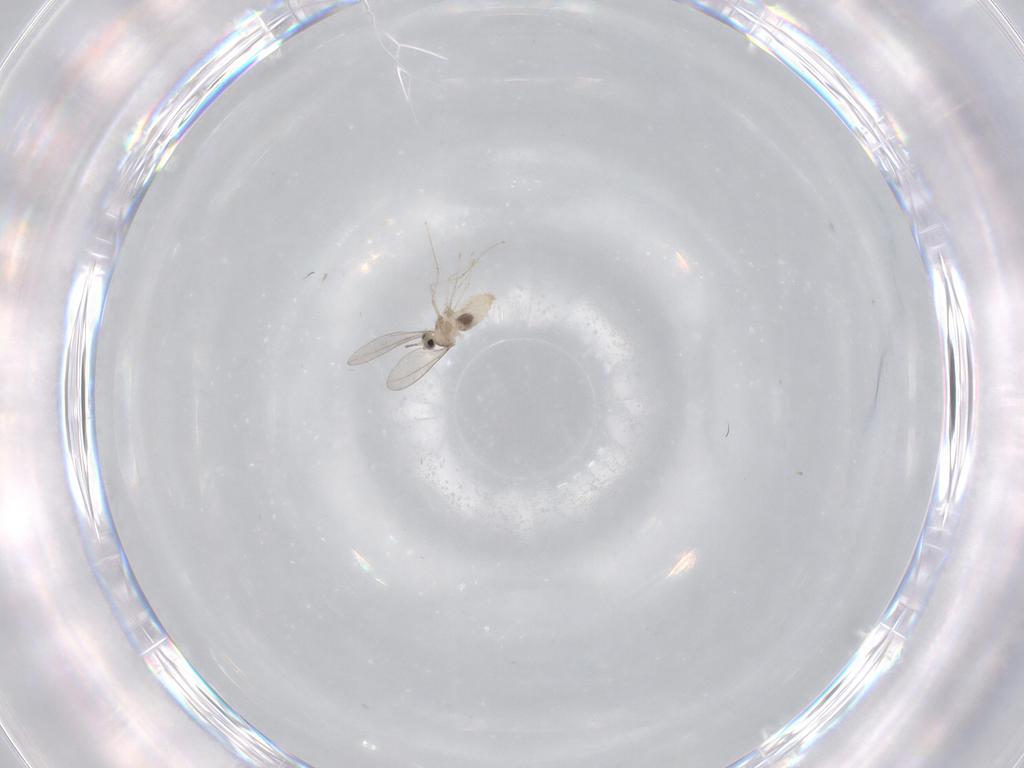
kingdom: Animalia
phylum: Arthropoda
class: Insecta
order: Diptera
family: Cecidomyiidae
